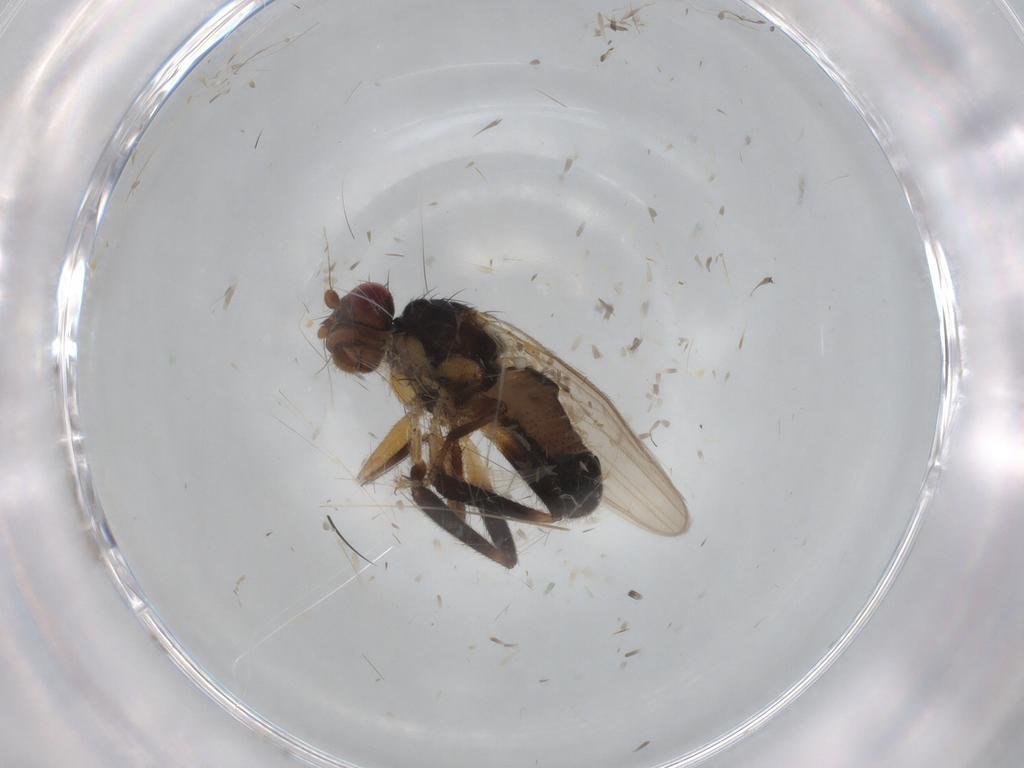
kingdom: Animalia
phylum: Arthropoda
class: Insecta
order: Diptera
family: Sphaeroceridae
